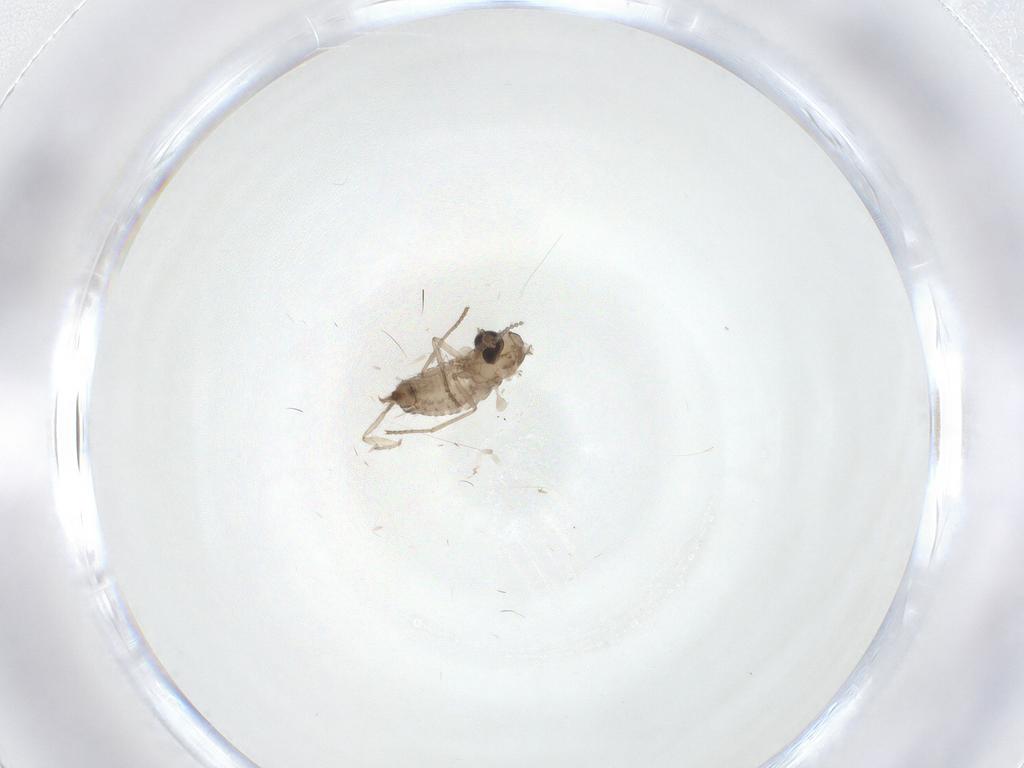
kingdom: Animalia
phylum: Arthropoda
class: Insecta
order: Diptera
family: Psychodidae
